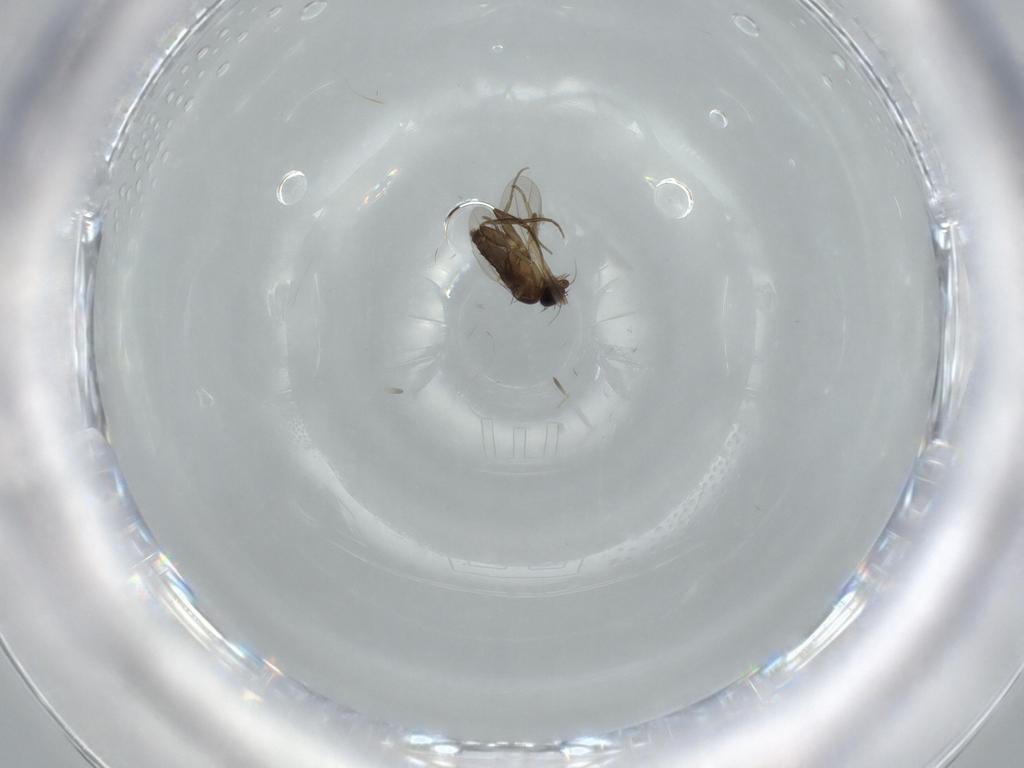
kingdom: Animalia
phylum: Arthropoda
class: Insecta
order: Diptera
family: Phoridae
